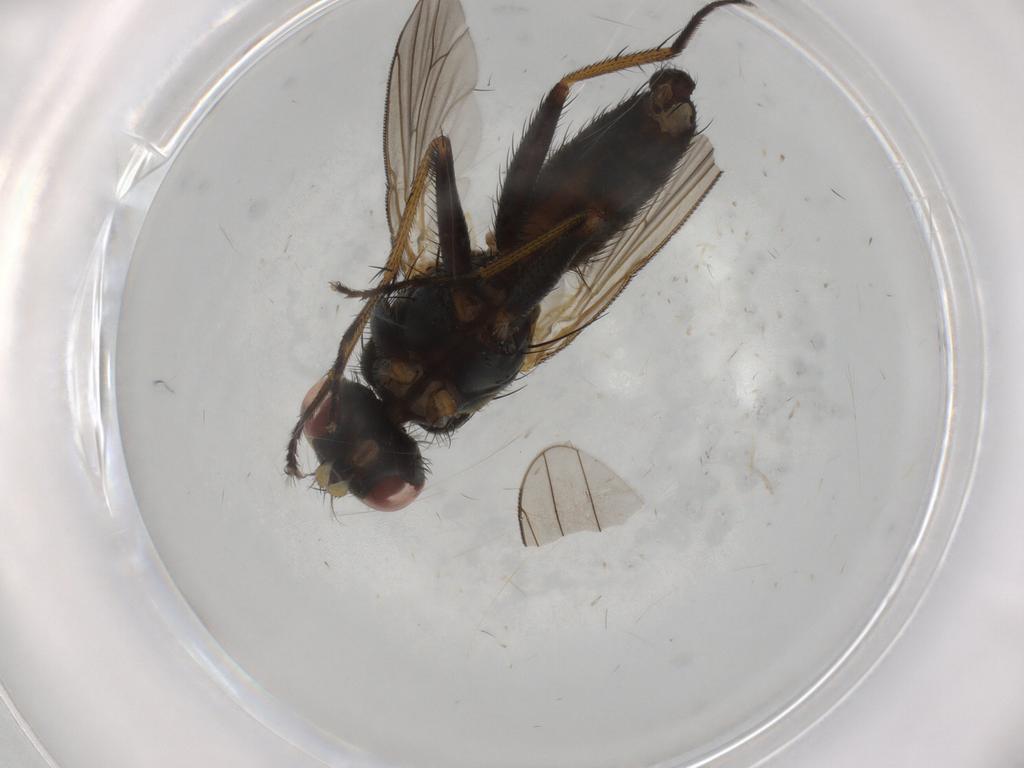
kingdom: Animalia
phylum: Arthropoda
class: Insecta
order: Diptera
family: Muscidae
